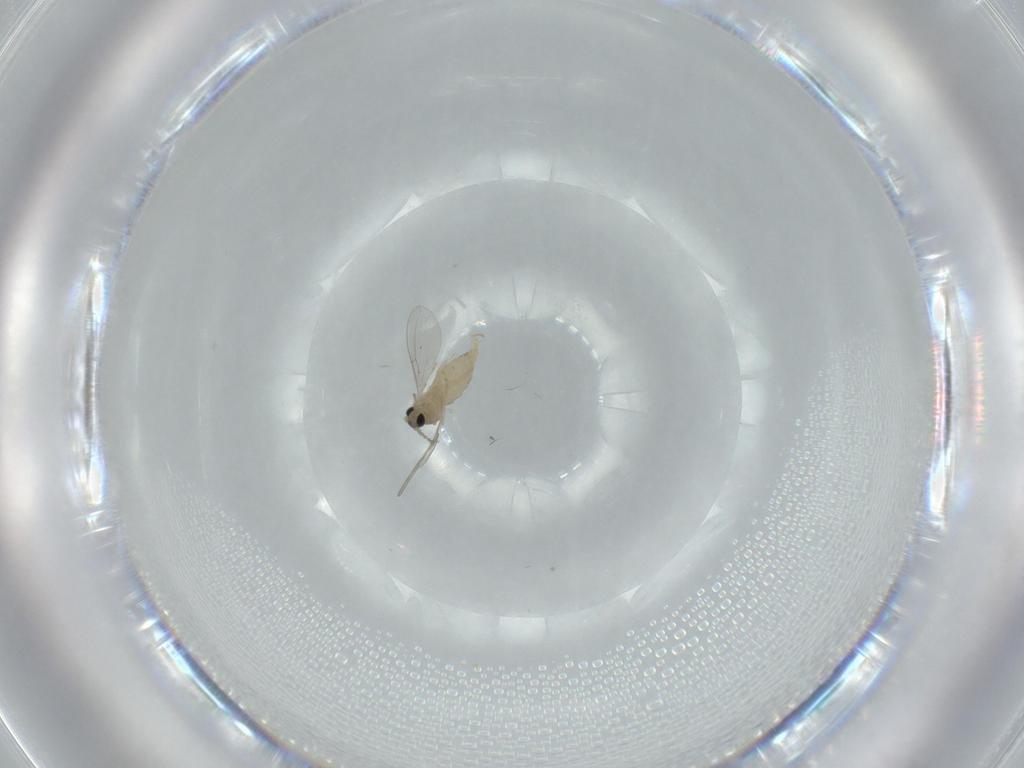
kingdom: Animalia
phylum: Arthropoda
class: Insecta
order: Diptera
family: Cecidomyiidae
